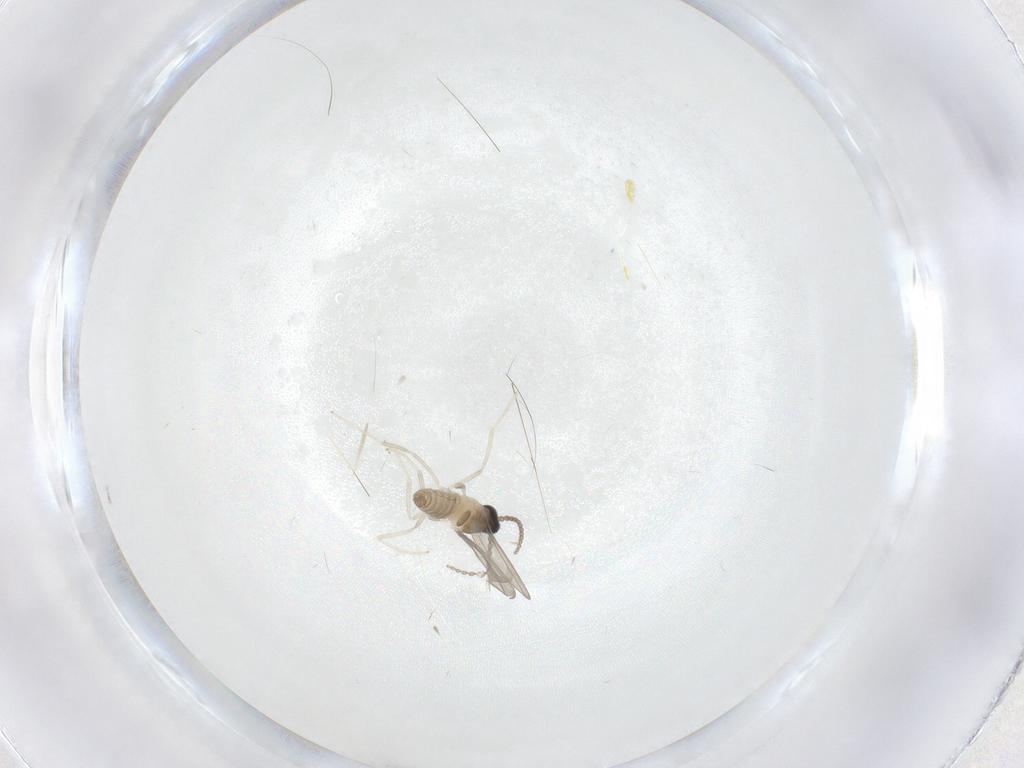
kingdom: Animalia
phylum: Arthropoda
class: Insecta
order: Diptera
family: Cecidomyiidae
